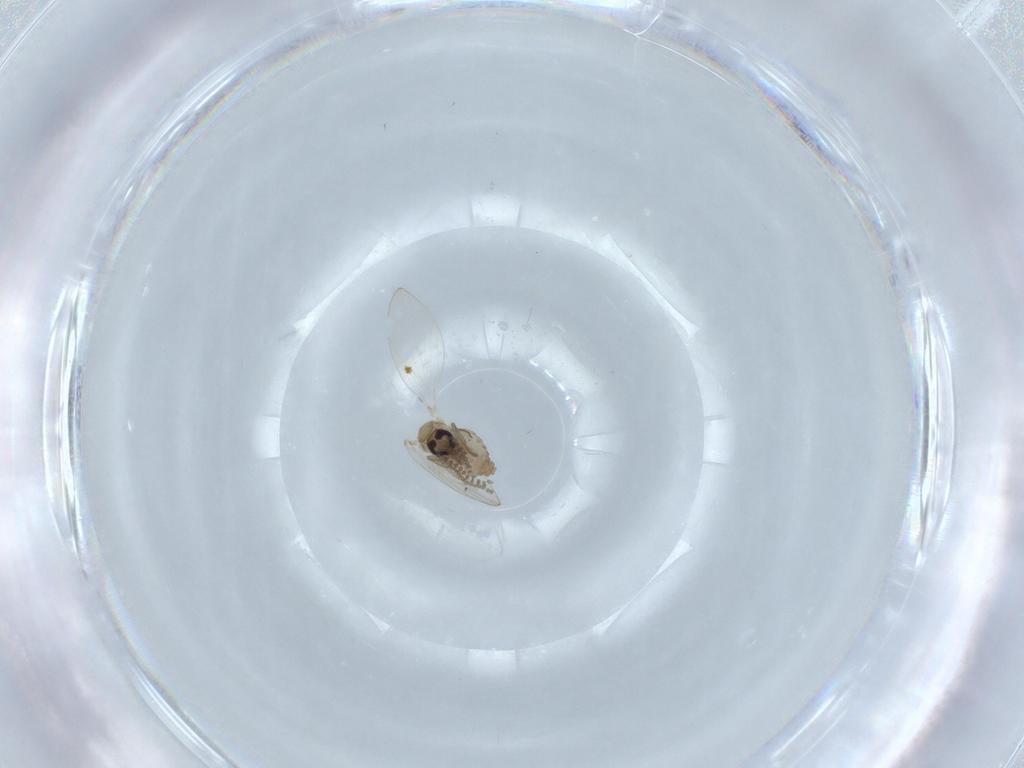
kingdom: Animalia
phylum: Arthropoda
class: Insecta
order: Diptera
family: Psychodidae
